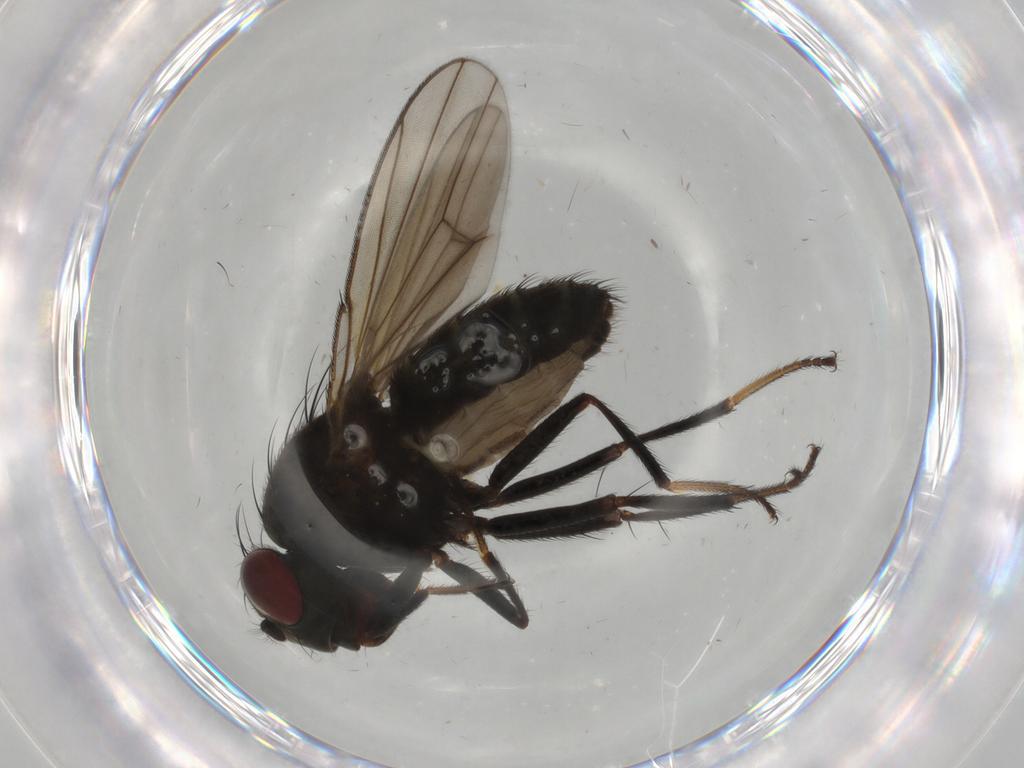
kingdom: Animalia
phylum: Arthropoda
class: Insecta
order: Diptera
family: Ephydridae
